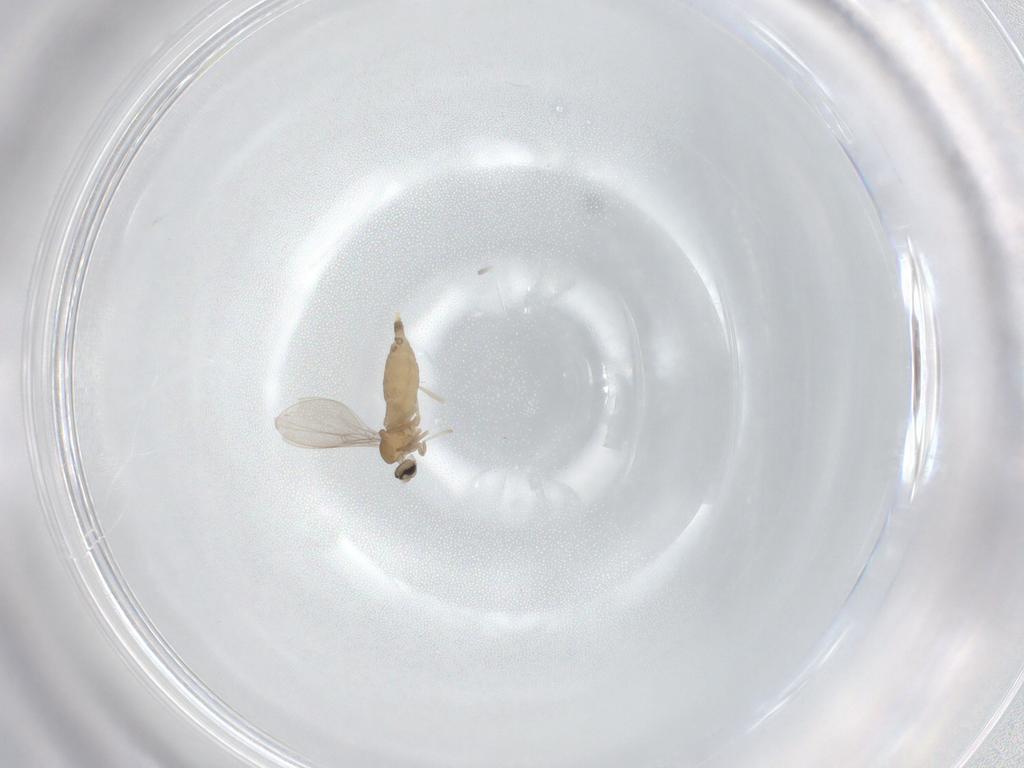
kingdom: Animalia
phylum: Arthropoda
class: Insecta
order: Diptera
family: Cecidomyiidae
